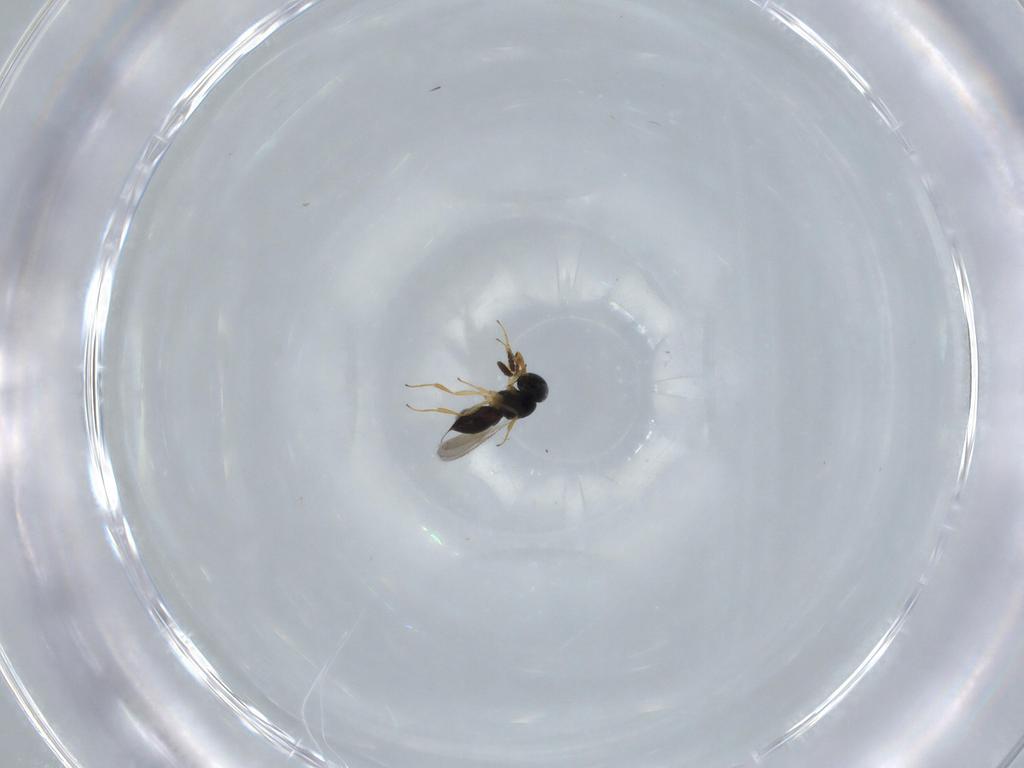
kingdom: Animalia
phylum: Arthropoda
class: Insecta
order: Hymenoptera
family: Scelionidae
